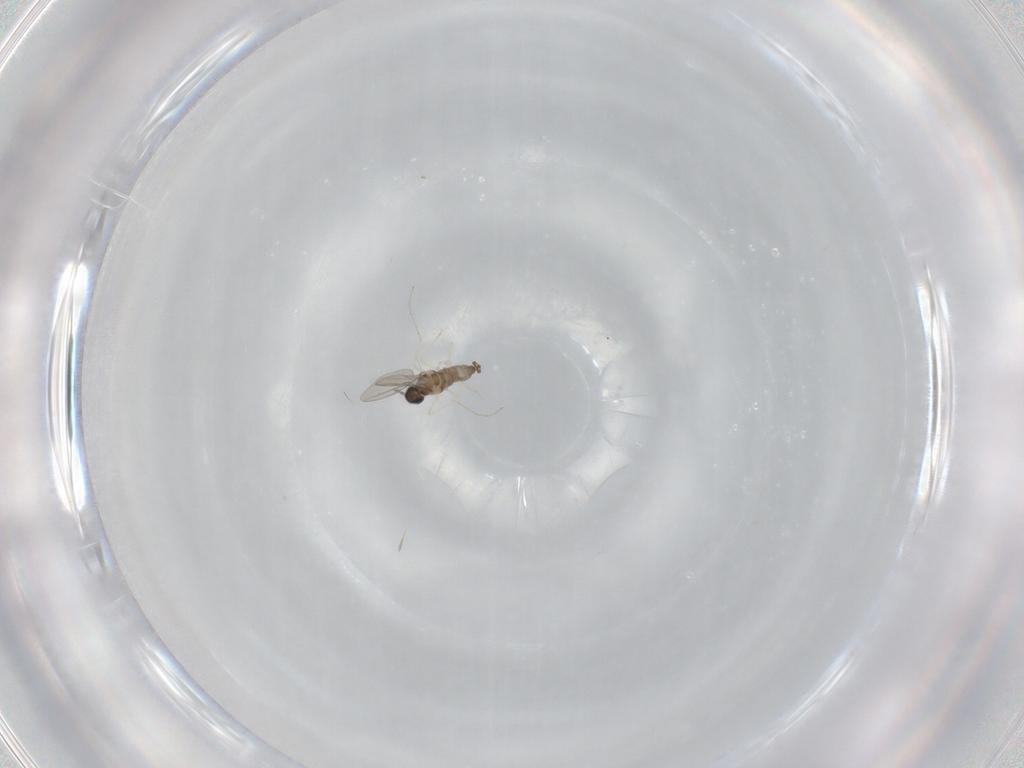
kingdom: Animalia
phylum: Arthropoda
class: Insecta
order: Diptera
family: Cecidomyiidae
